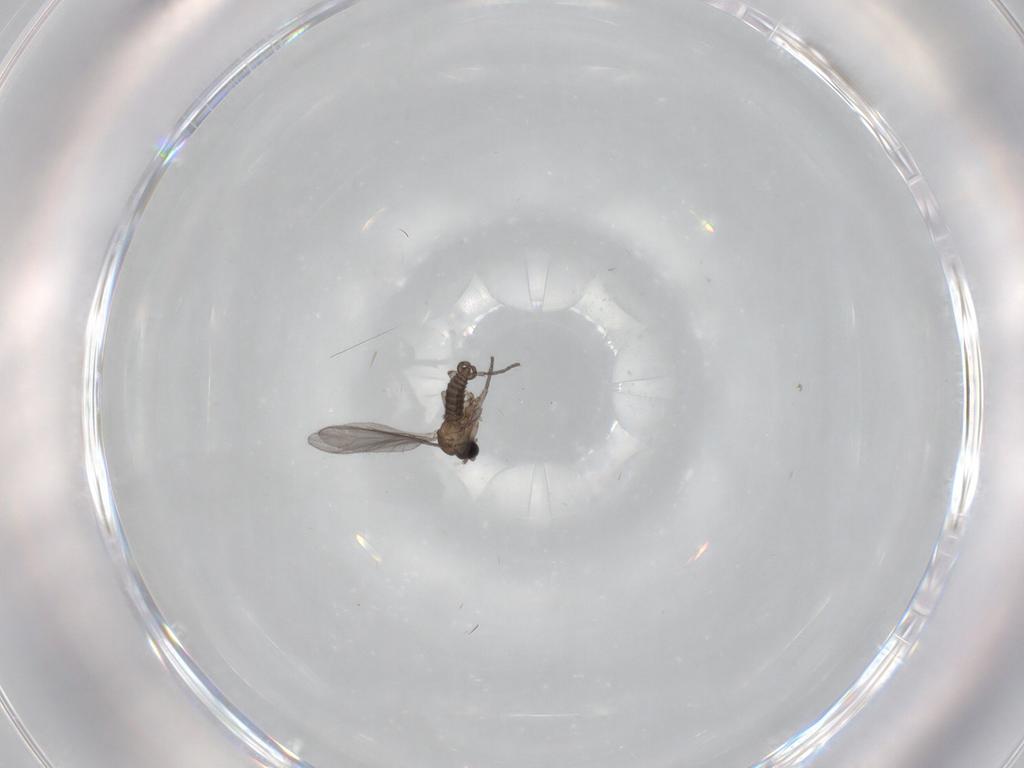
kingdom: Animalia
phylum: Arthropoda
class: Insecta
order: Diptera
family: Sciaridae
